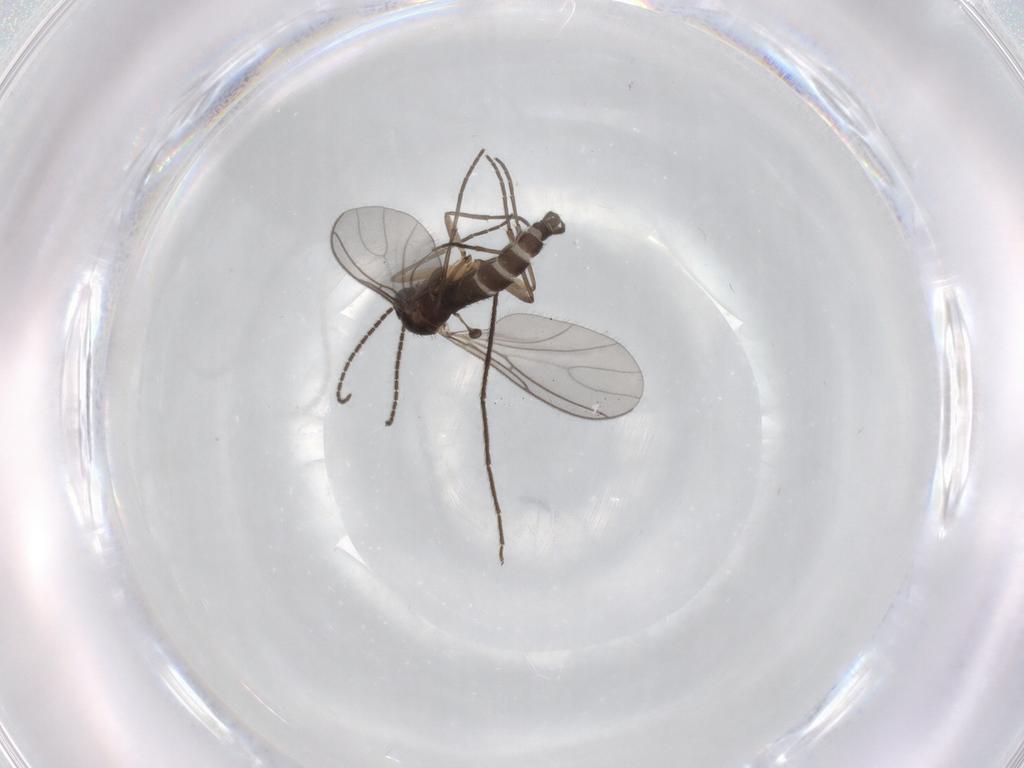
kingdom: Animalia
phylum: Arthropoda
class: Insecta
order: Diptera
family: Sciaridae
